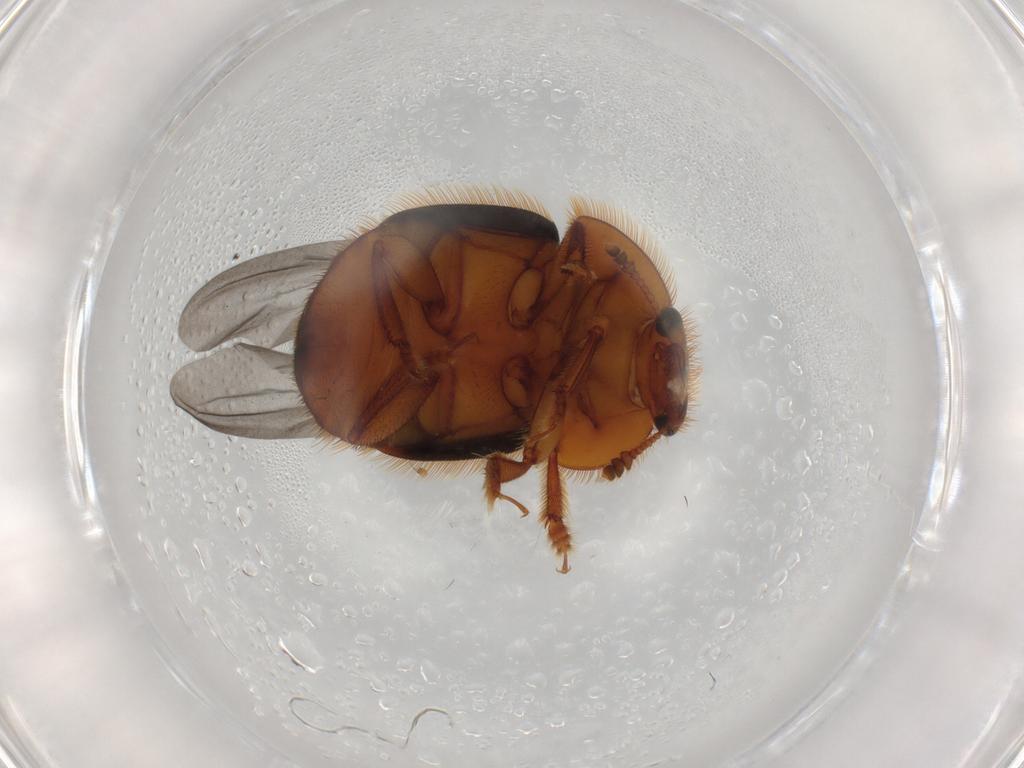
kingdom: Animalia
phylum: Arthropoda
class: Insecta
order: Coleoptera
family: Nitidulidae
